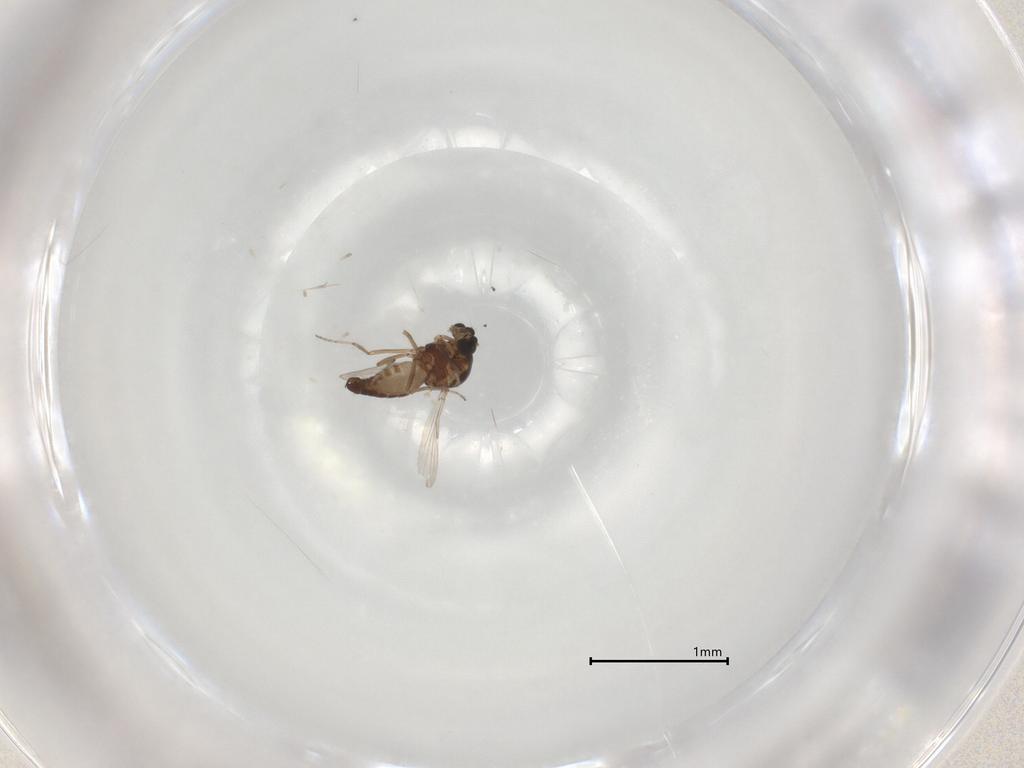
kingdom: Animalia
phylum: Arthropoda
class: Insecta
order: Diptera
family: Ceratopogonidae
